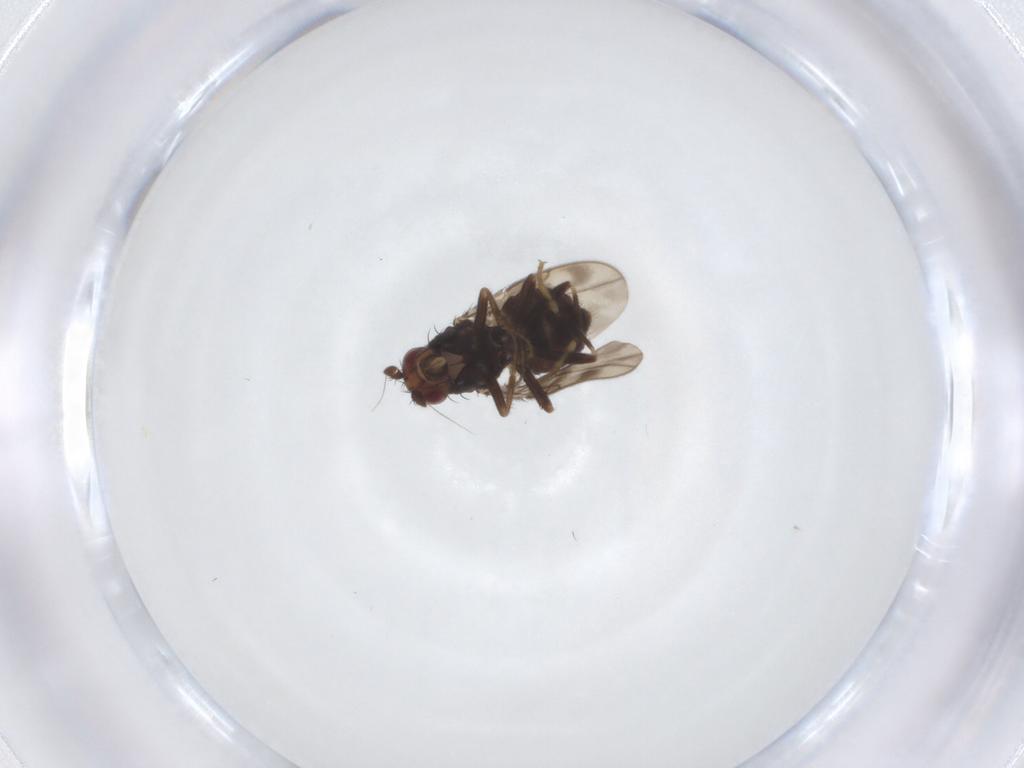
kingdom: Animalia
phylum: Arthropoda
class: Insecta
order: Diptera
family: Sphaeroceridae
